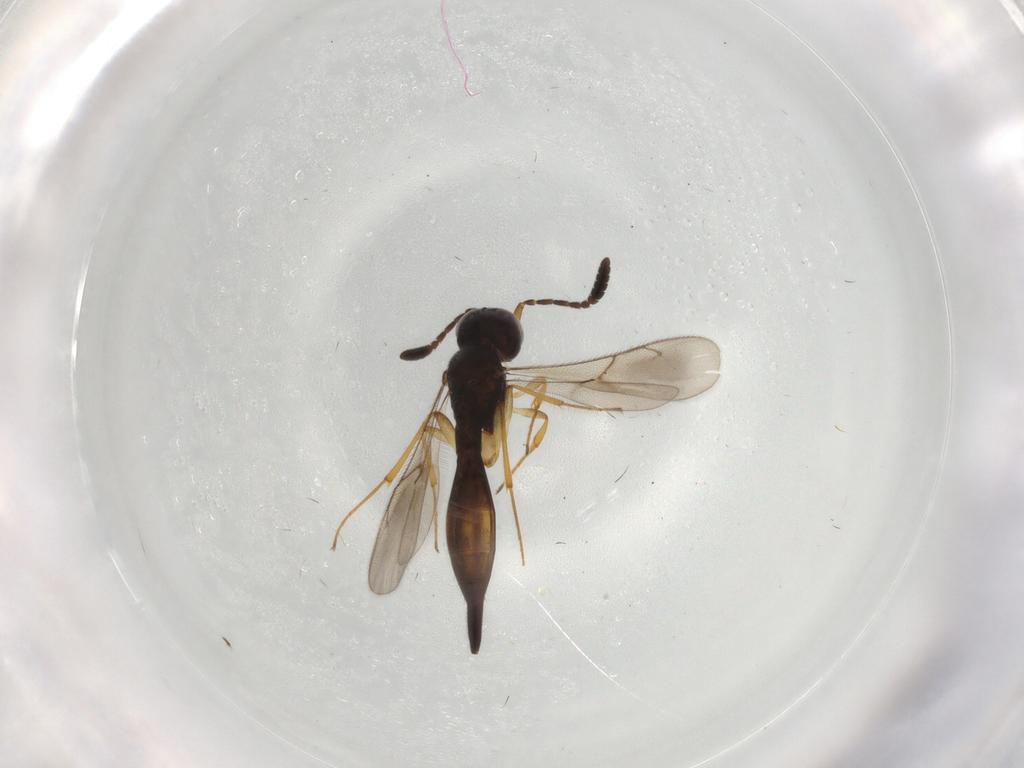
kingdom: Animalia
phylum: Arthropoda
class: Insecta
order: Hymenoptera
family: Scelionidae
